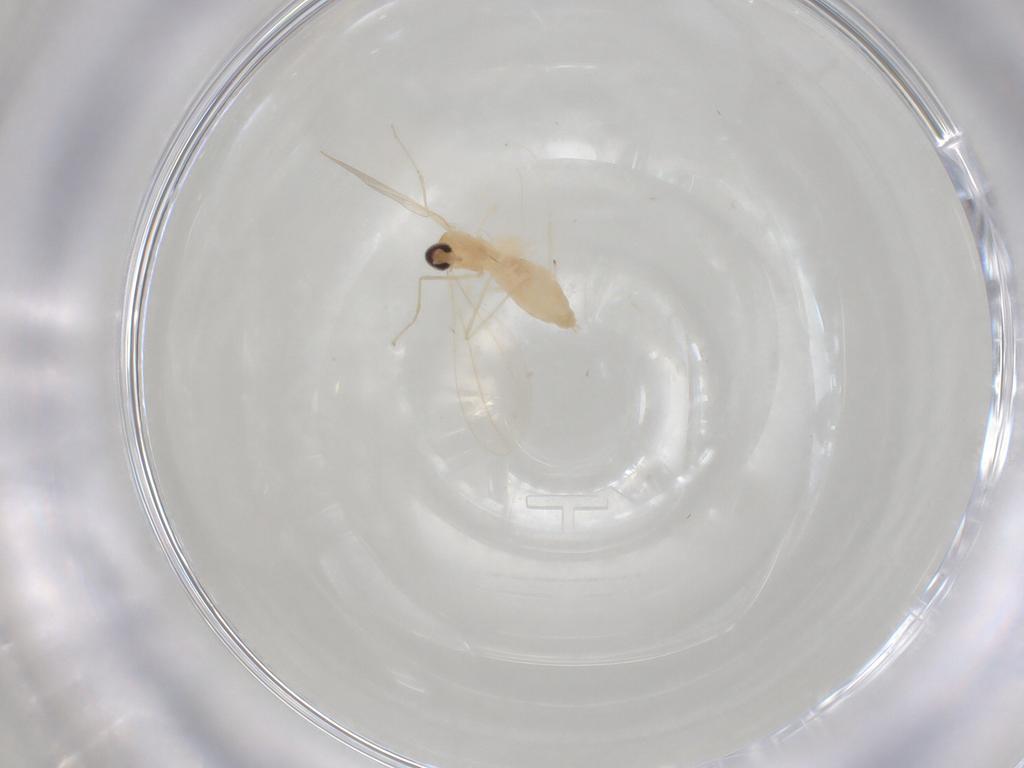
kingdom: Animalia
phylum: Arthropoda
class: Insecta
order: Diptera
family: Cecidomyiidae
